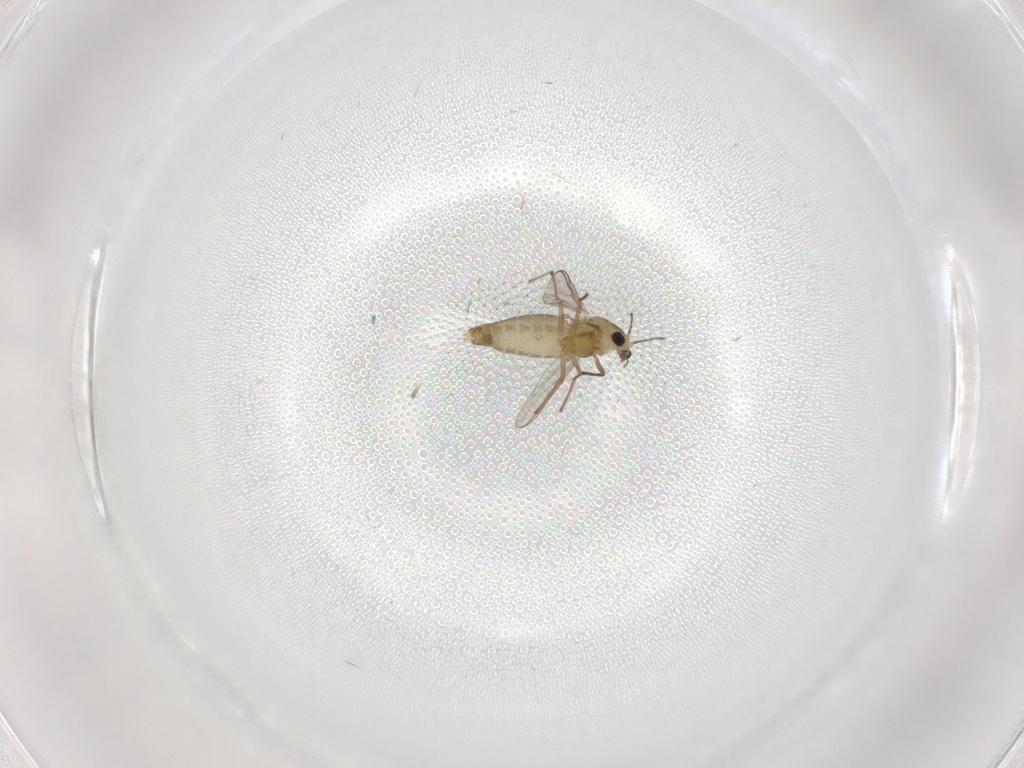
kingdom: Animalia
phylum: Arthropoda
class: Insecta
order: Diptera
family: Chironomidae
